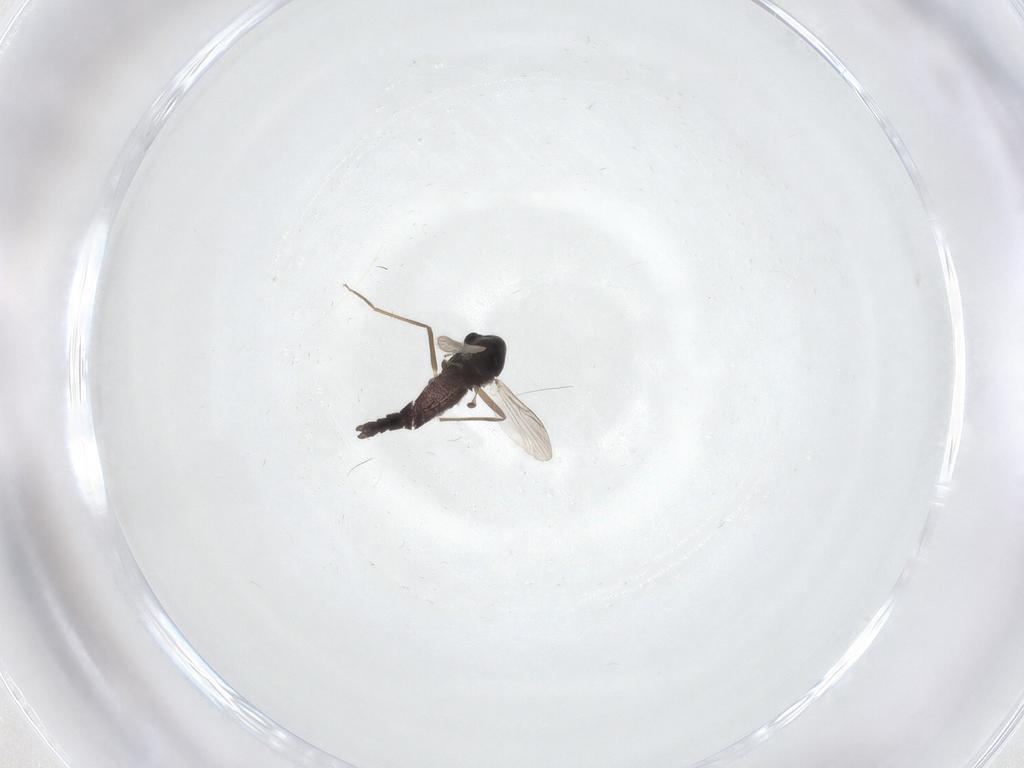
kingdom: Animalia
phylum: Arthropoda
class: Insecta
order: Diptera
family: Chironomidae
